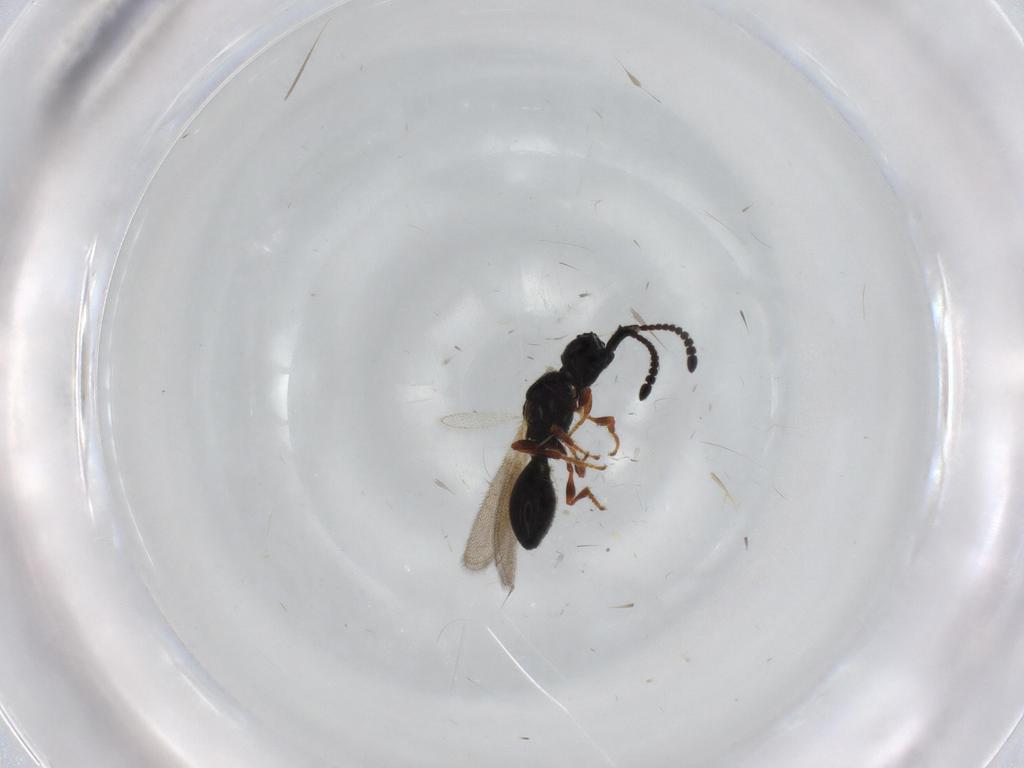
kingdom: Animalia
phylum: Arthropoda
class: Insecta
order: Hymenoptera
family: Diapriidae
